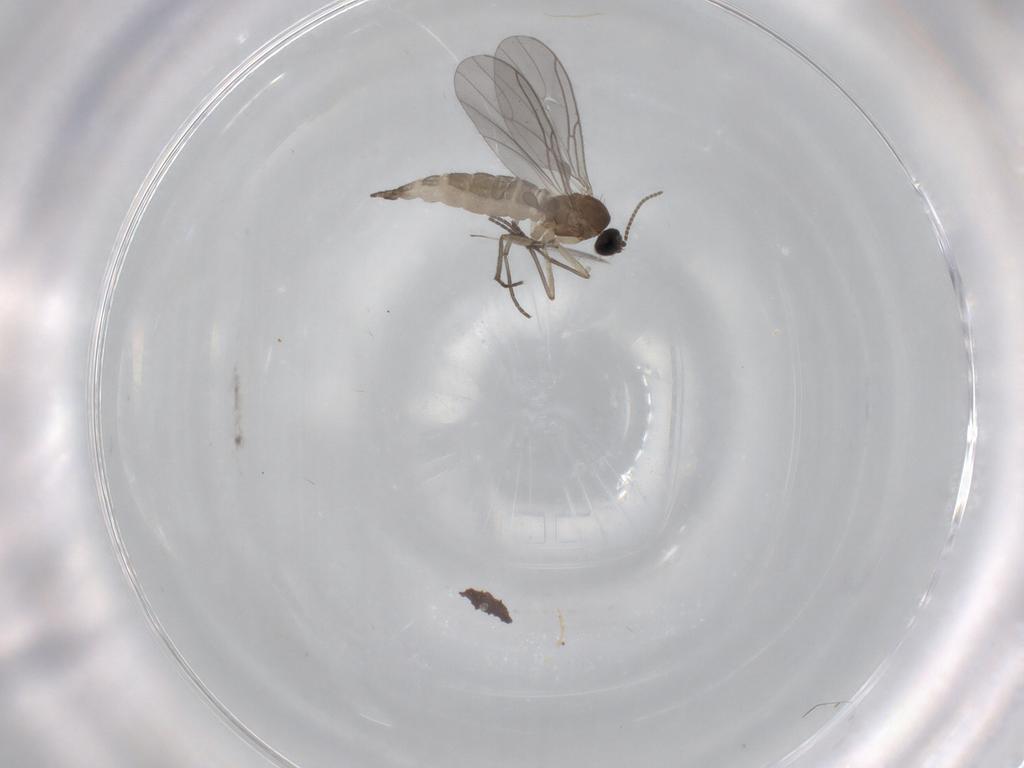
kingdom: Animalia
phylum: Arthropoda
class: Insecta
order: Diptera
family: Sciaridae
